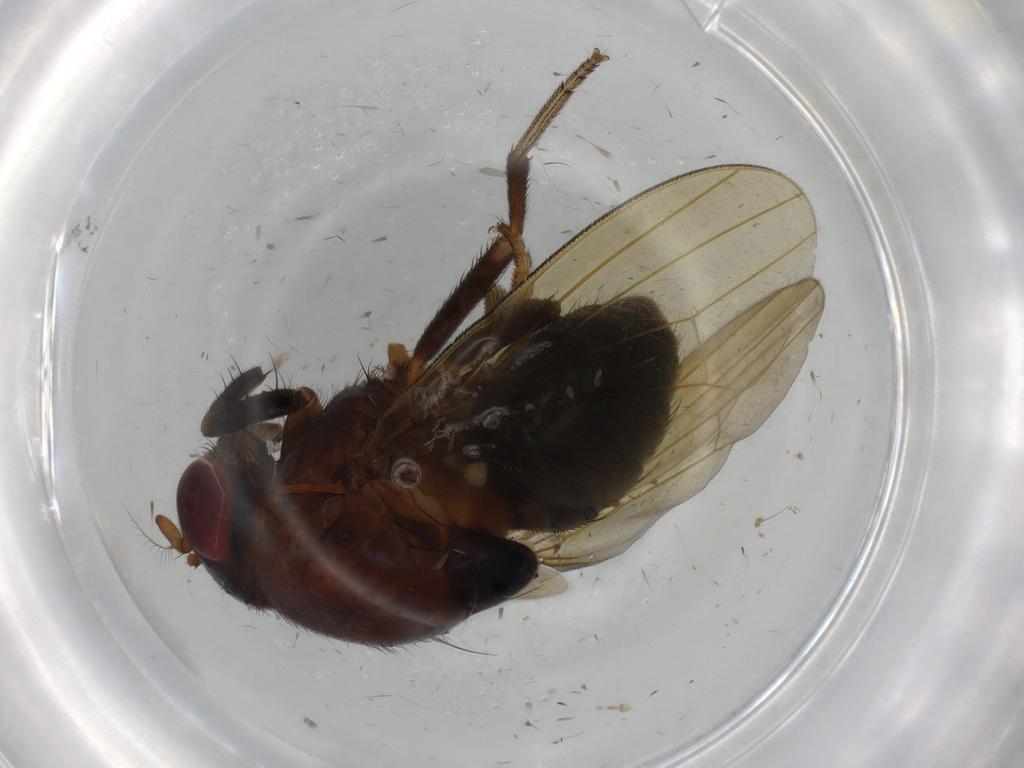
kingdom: Animalia
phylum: Arthropoda
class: Insecta
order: Diptera
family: Lauxaniidae
